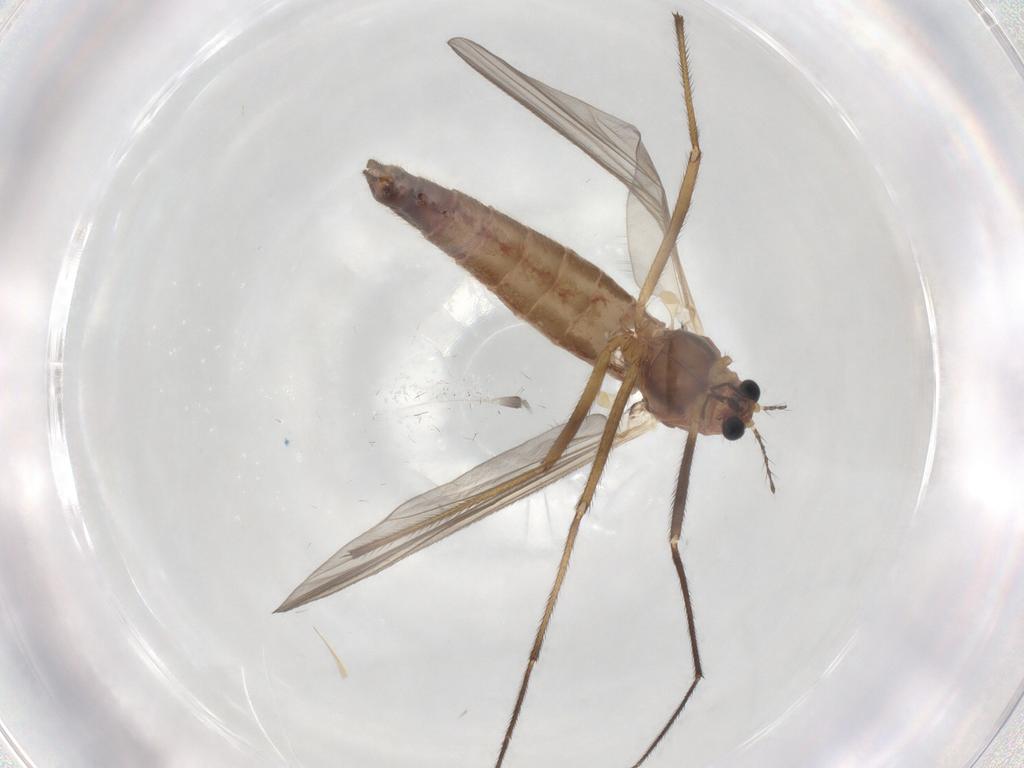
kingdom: Animalia
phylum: Arthropoda
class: Insecta
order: Diptera
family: Chironomidae
